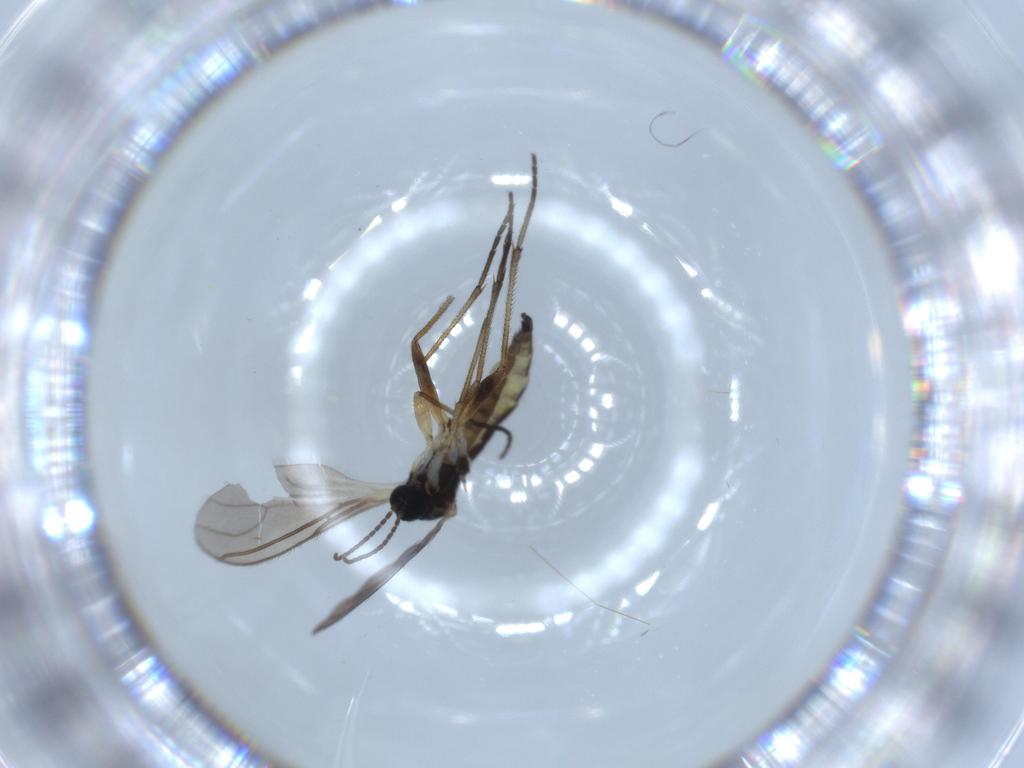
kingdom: Animalia
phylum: Arthropoda
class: Insecta
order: Diptera
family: Sciaridae
